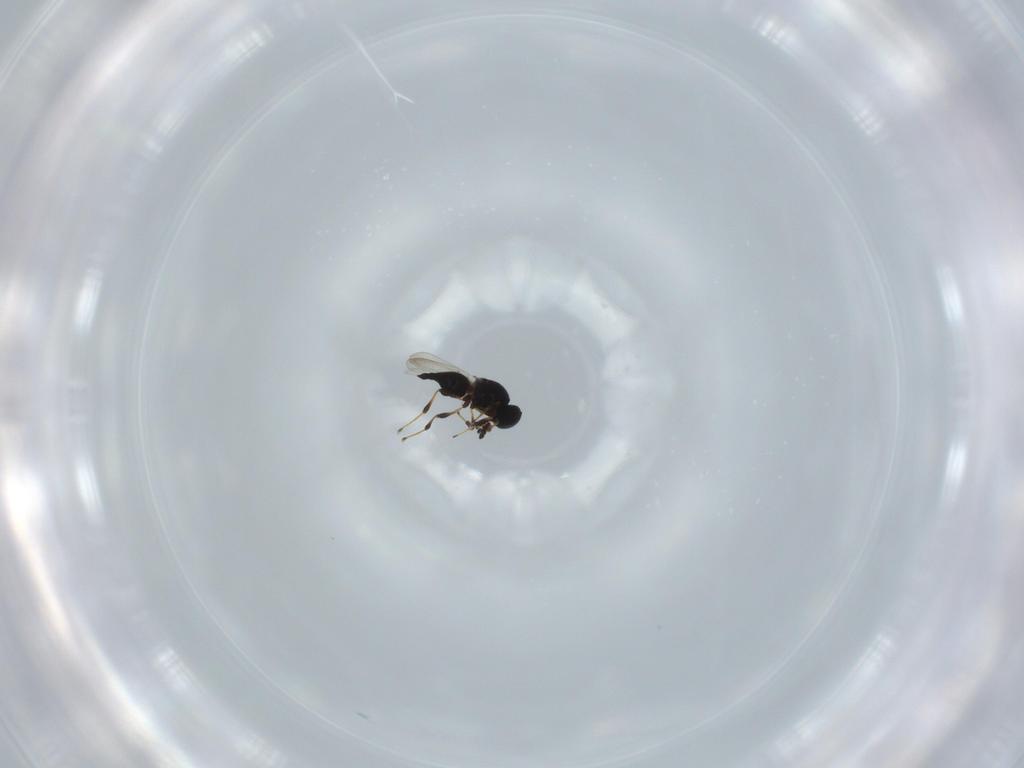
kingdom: Animalia
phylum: Arthropoda
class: Insecta
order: Hymenoptera
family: Platygastridae
